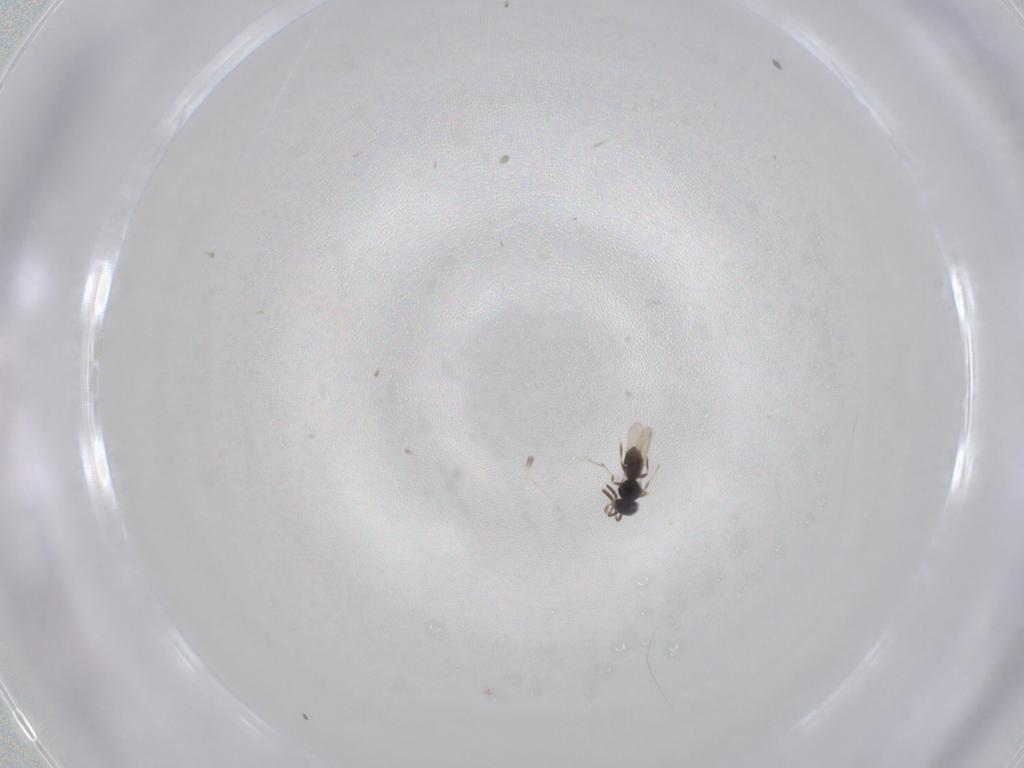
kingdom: Animalia
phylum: Arthropoda
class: Insecta
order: Hymenoptera
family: Scelionidae
